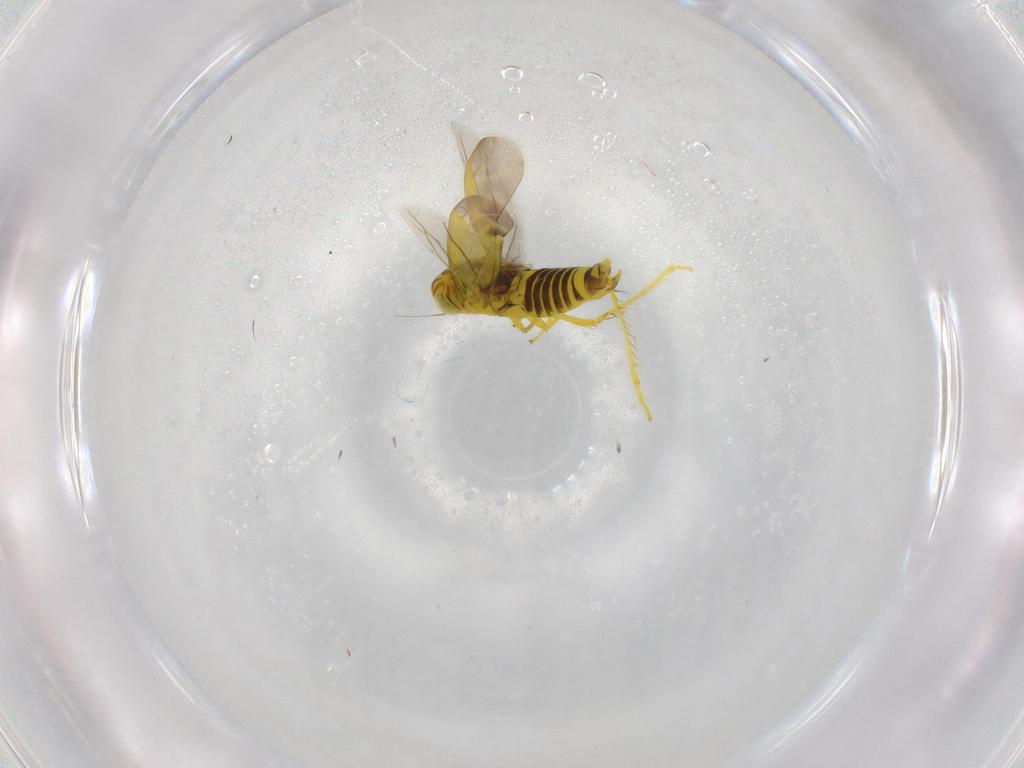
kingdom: Animalia
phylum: Arthropoda
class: Insecta
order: Hemiptera
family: Cicadellidae
